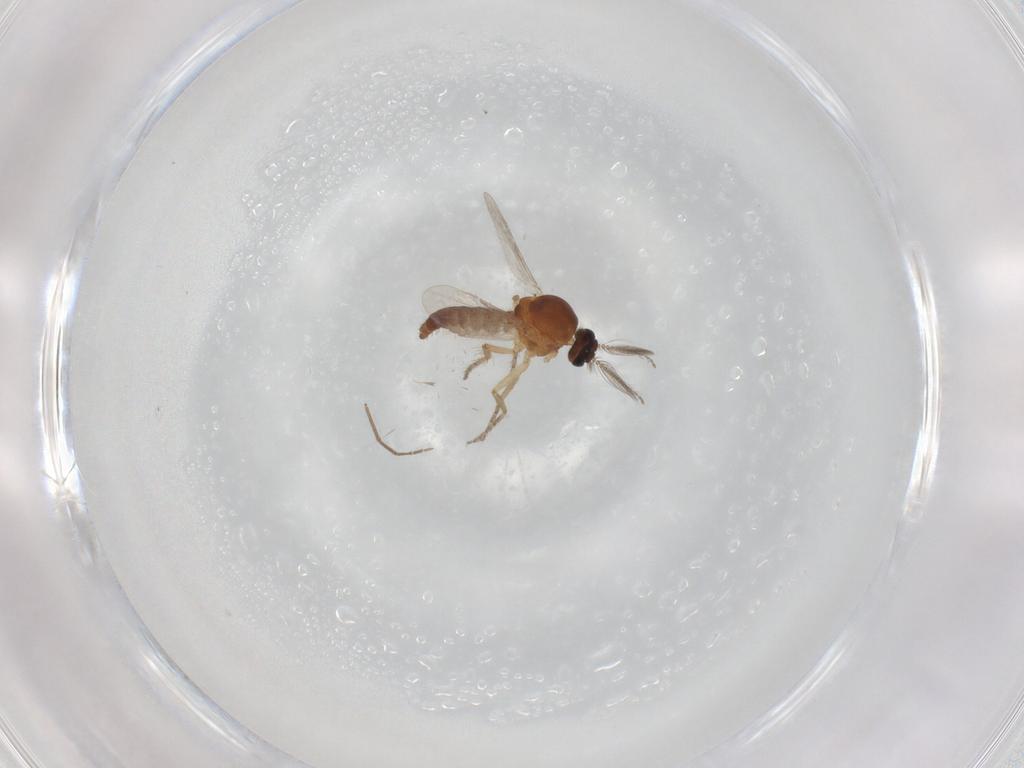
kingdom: Animalia
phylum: Arthropoda
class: Insecta
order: Diptera
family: Ceratopogonidae
